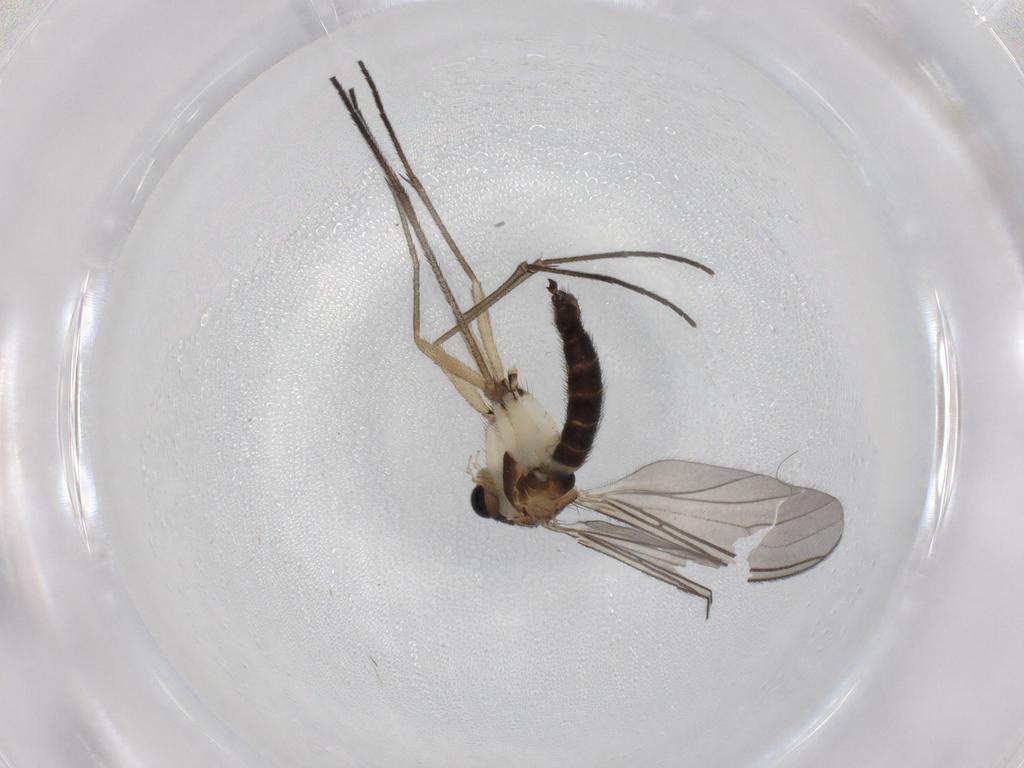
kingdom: Animalia
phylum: Arthropoda
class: Insecta
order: Diptera
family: Sciaridae
